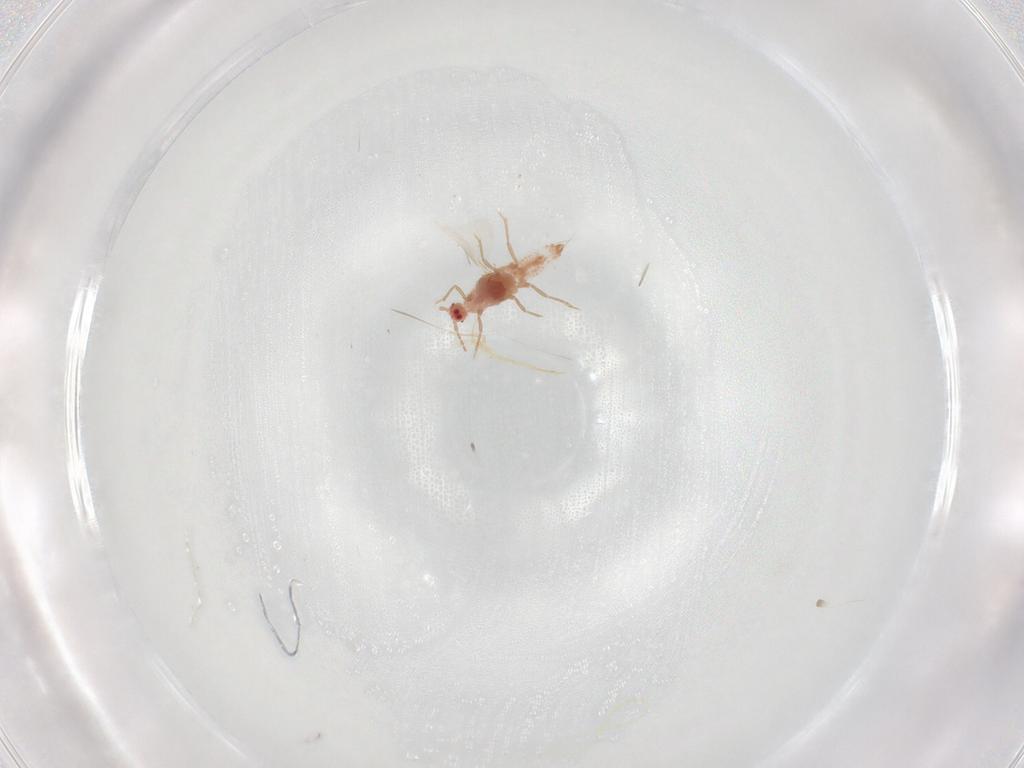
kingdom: Animalia
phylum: Arthropoda
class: Insecta
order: Hemiptera
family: Cicadellidae
